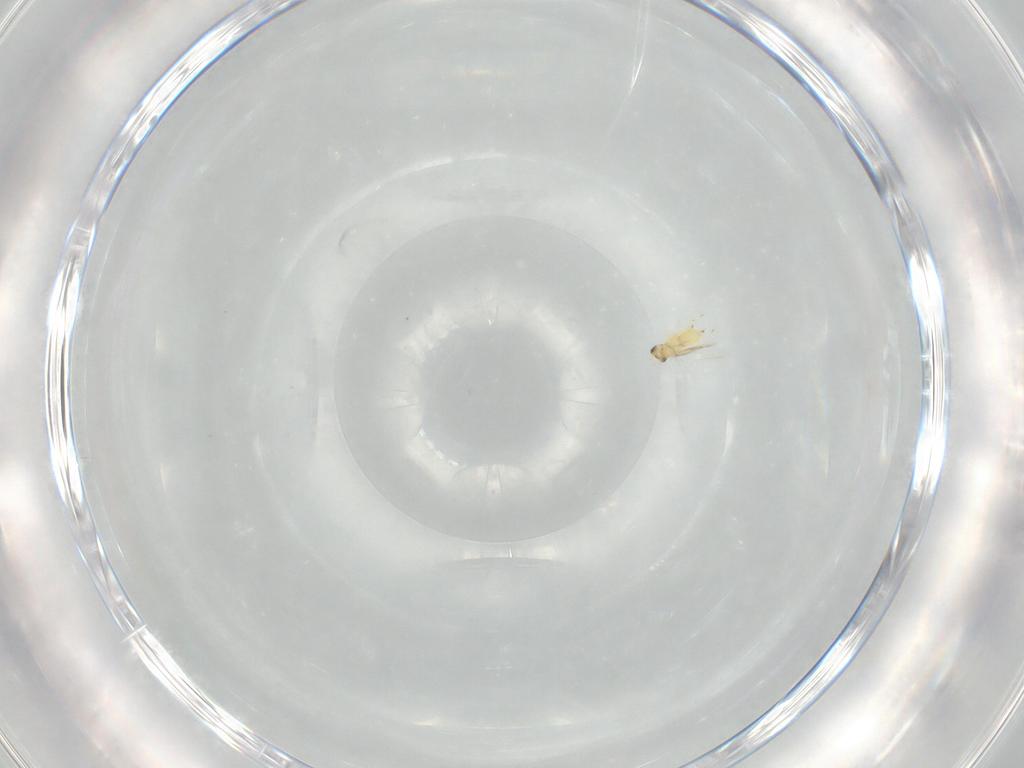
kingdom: Animalia
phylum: Arthropoda
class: Insecta
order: Hymenoptera
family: Mymaridae
